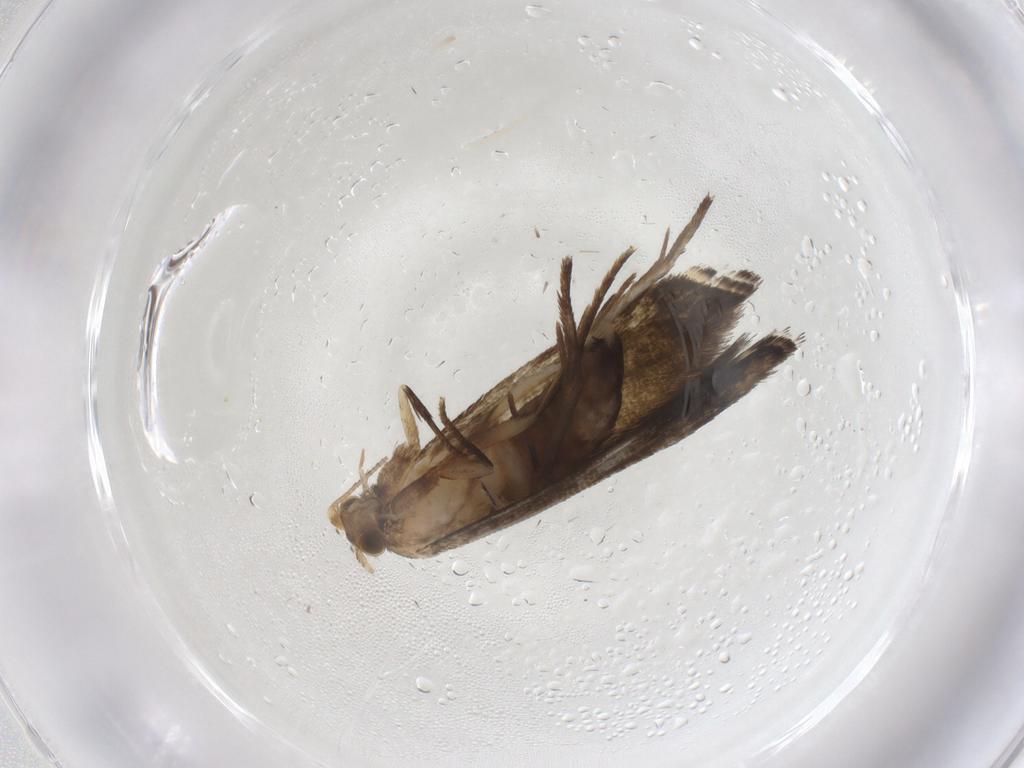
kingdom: Animalia
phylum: Arthropoda
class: Insecta
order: Lepidoptera
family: Tineidae
